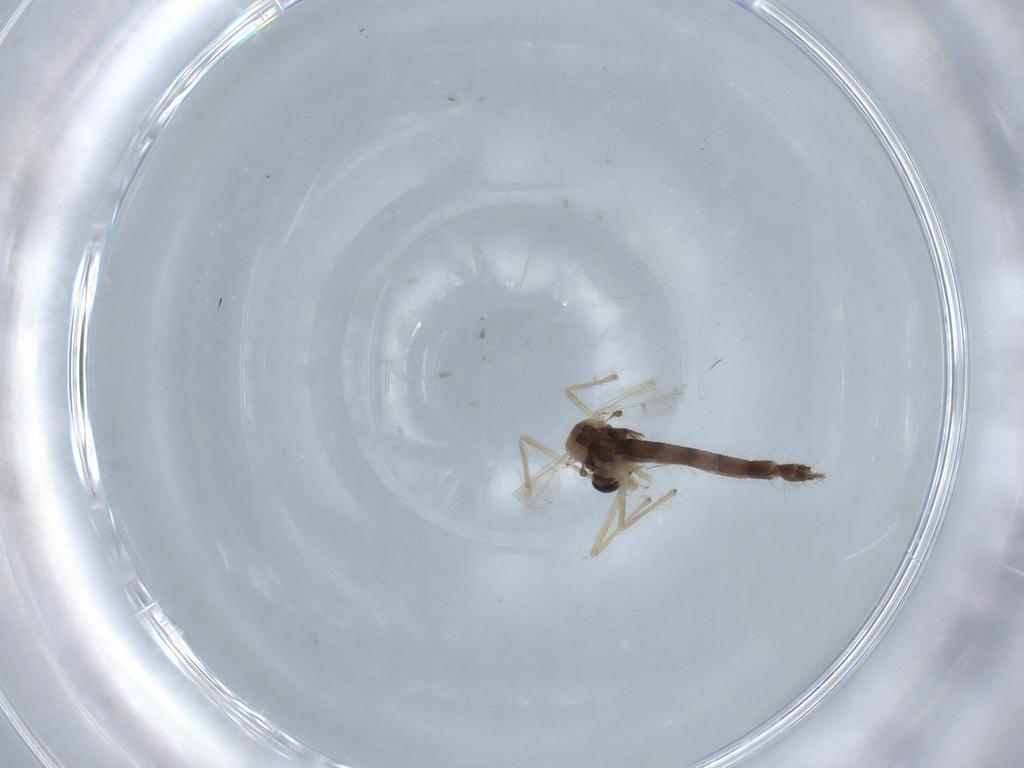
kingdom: Animalia
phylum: Arthropoda
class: Insecta
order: Diptera
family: Chironomidae
